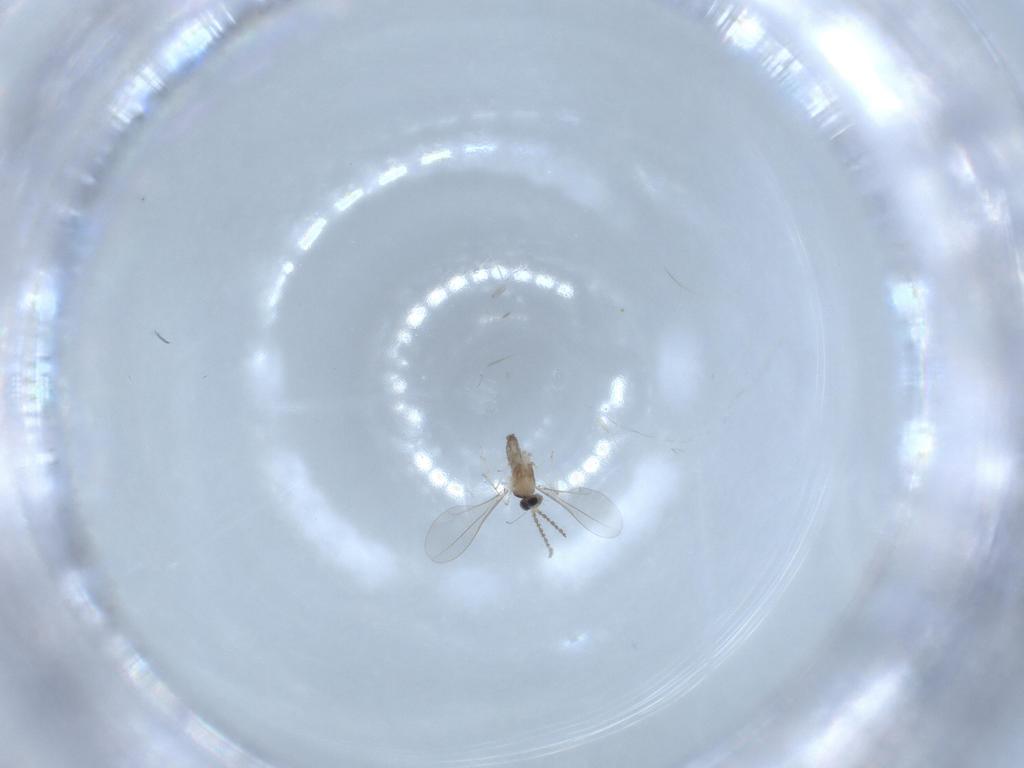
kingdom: Animalia
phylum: Arthropoda
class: Insecta
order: Diptera
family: Cecidomyiidae
